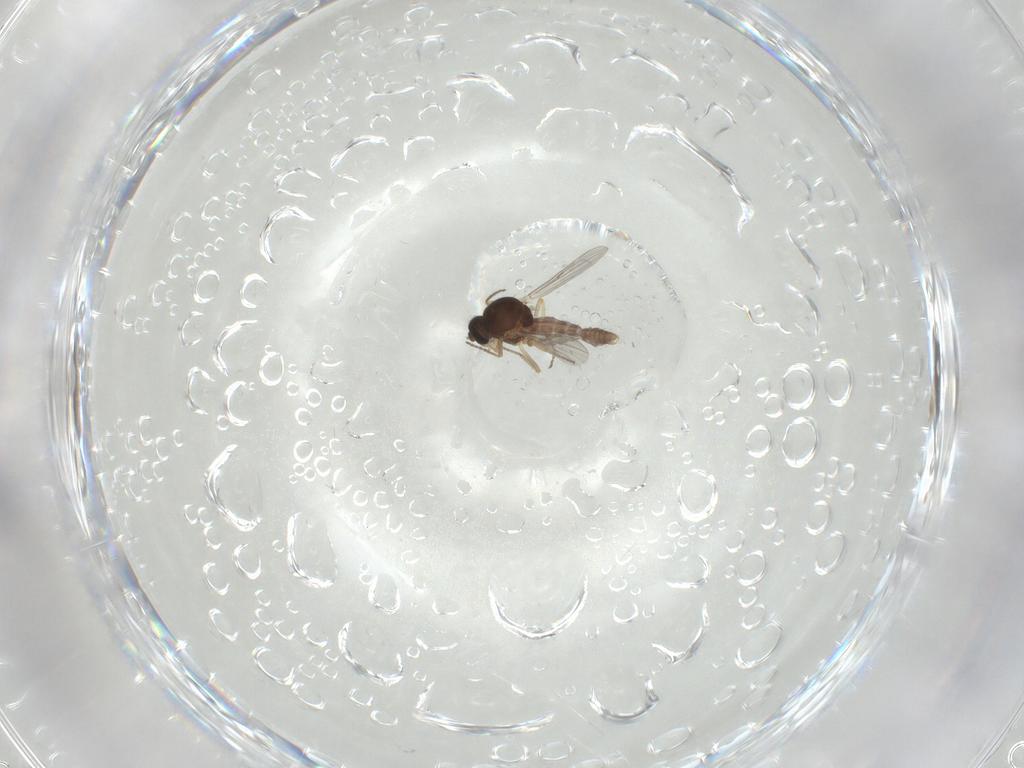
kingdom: Animalia
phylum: Arthropoda
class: Insecta
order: Diptera
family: Ceratopogonidae
